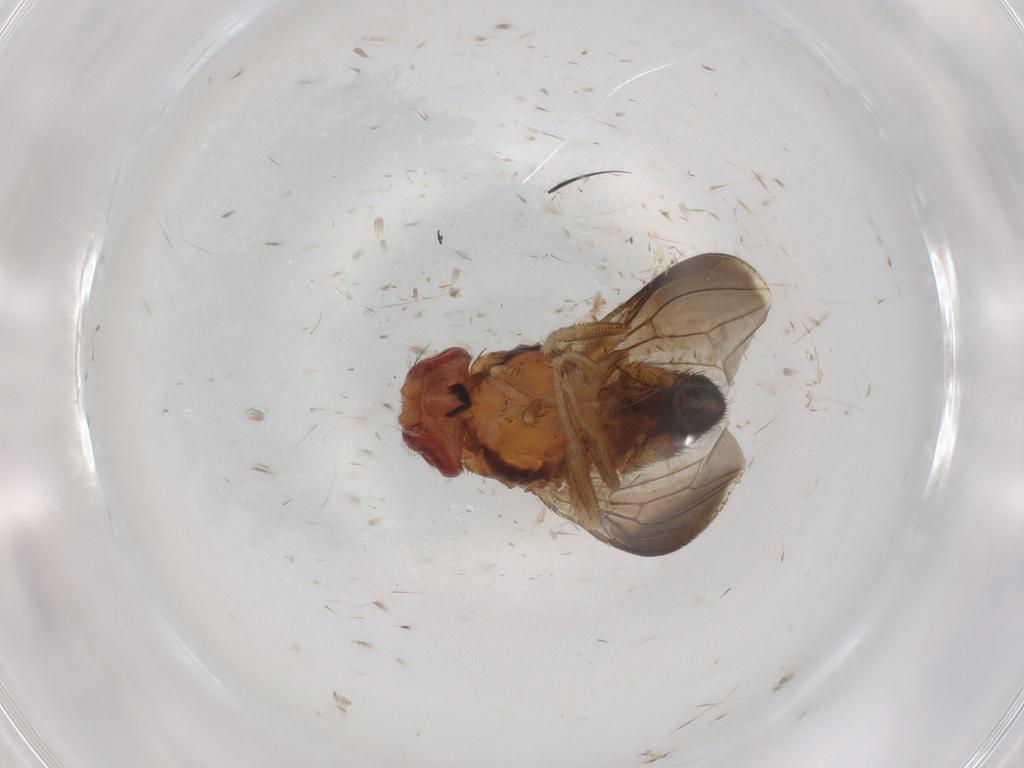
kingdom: Animalia
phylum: Arthropoda
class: Insecta
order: Diptera
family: Drosophilidae
